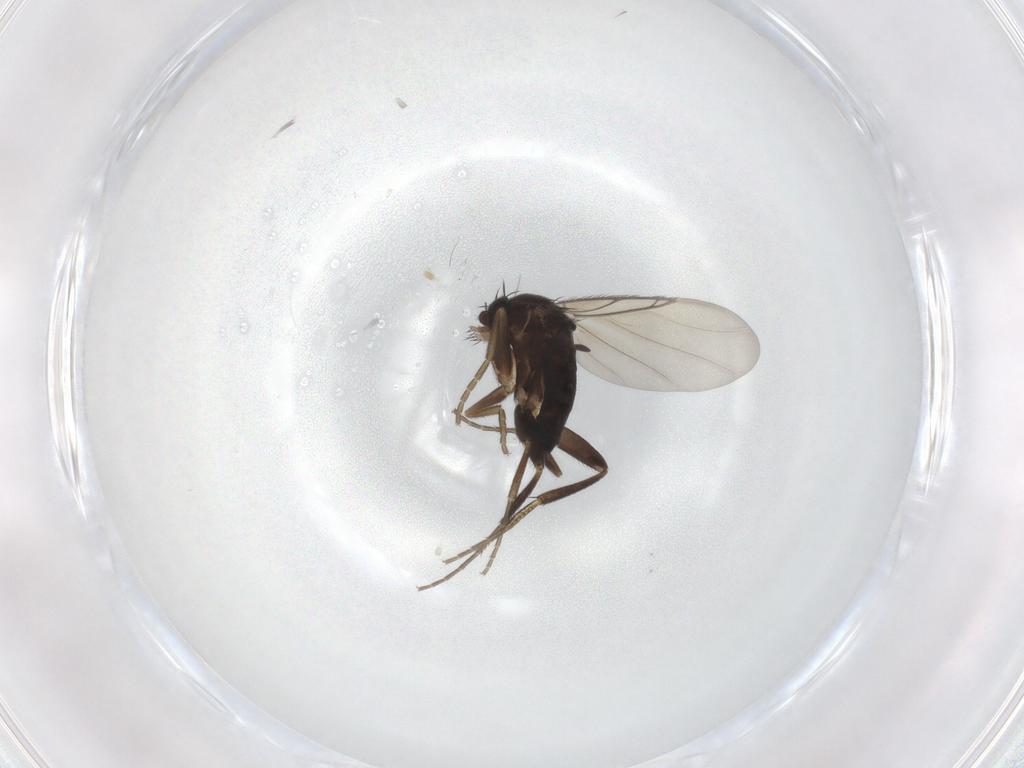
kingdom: Animalia
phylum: Arthropoda
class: Insecta
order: Diptera
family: Phoridae
